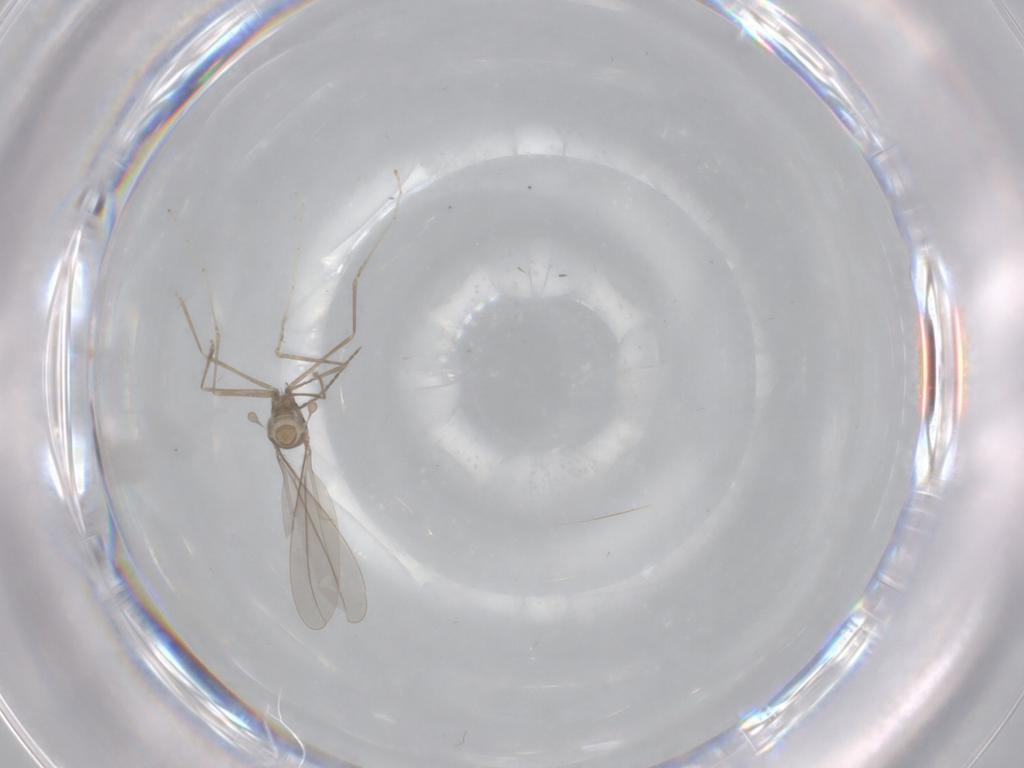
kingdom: Animalia
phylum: Arthropoda
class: Insecta
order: Diptera
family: Cecidomyiidae
